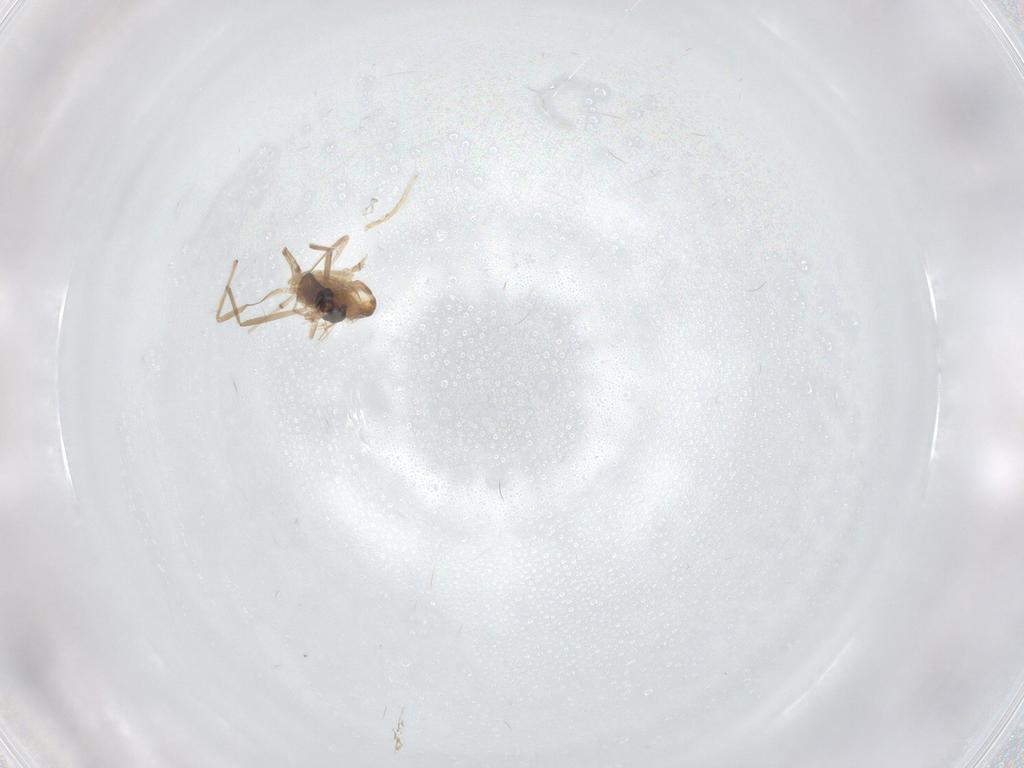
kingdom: Animalia
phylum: Arthropoda
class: Insecta
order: Diptera
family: Chironomidae
